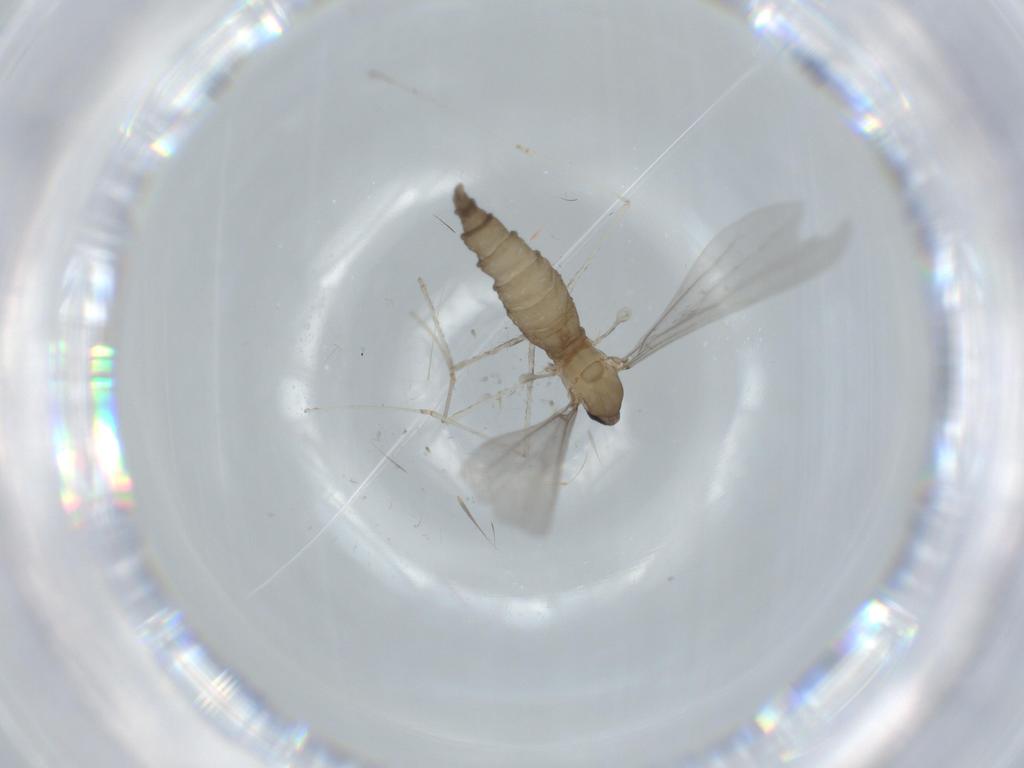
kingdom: Animalia
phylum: Arthropoda
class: Insecta
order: Diptera
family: Cecidomyiidae
